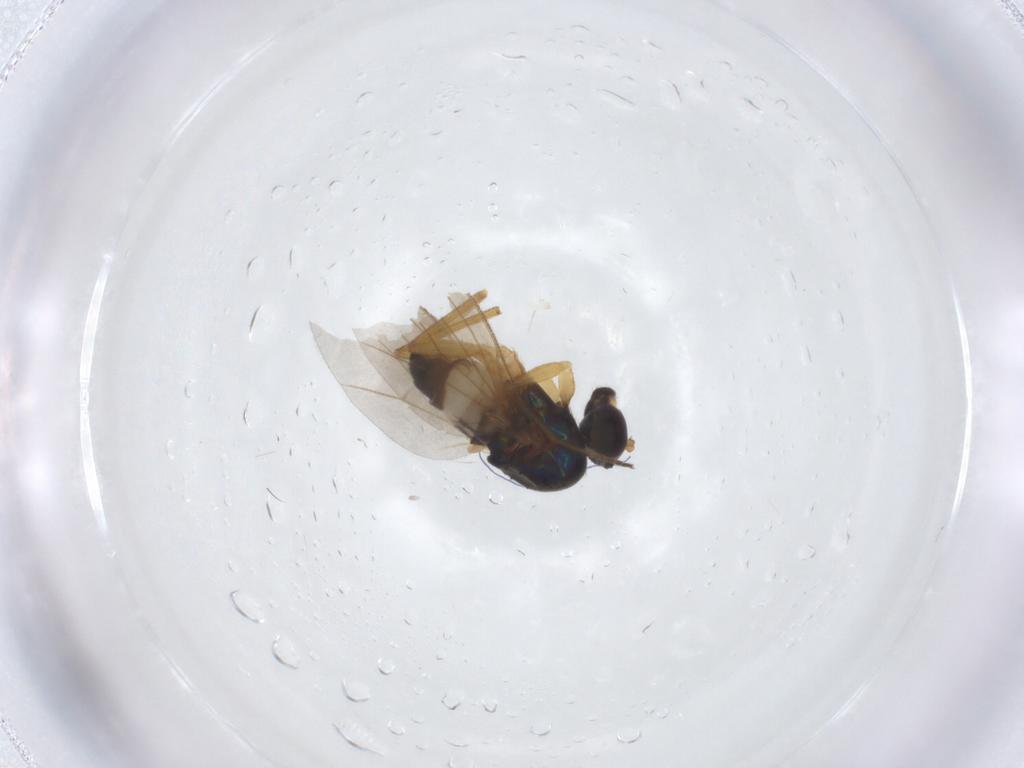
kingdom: Animalia
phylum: Arthropoda
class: Insecta
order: Diptera
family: Dolichopodidae
